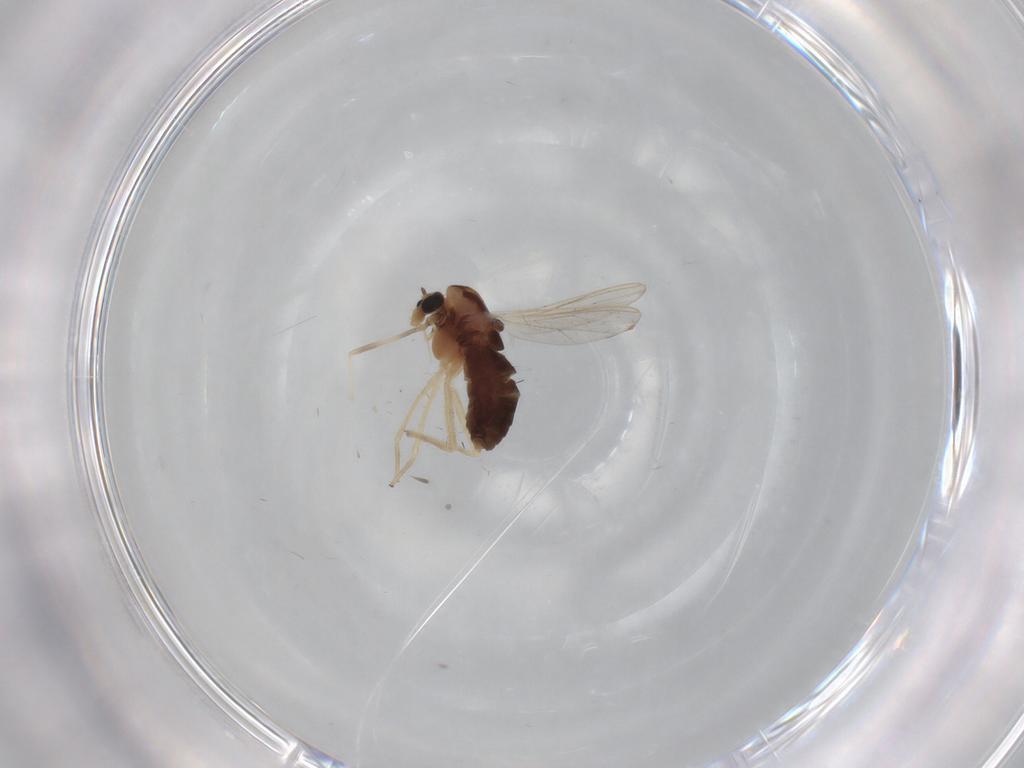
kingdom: Animalia
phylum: Arthropoda
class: Insecta
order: Diptera
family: Chironomidae
